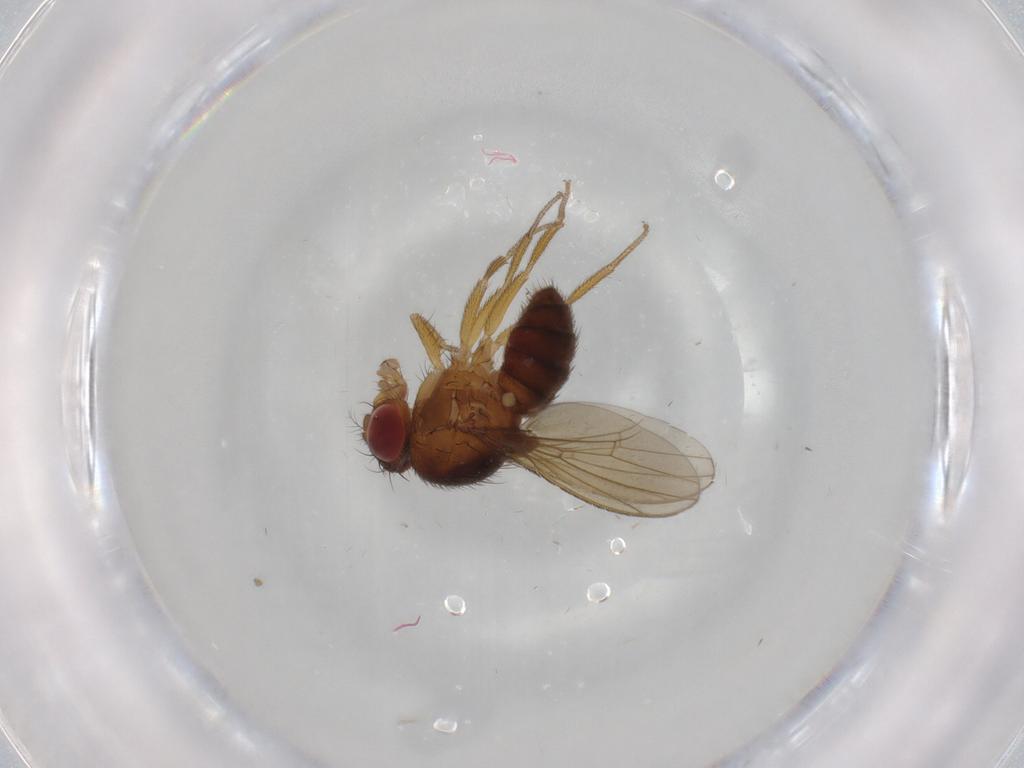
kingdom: Animalia
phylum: Arthropoda
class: Insecta
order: Diptera
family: Drosophilidae
